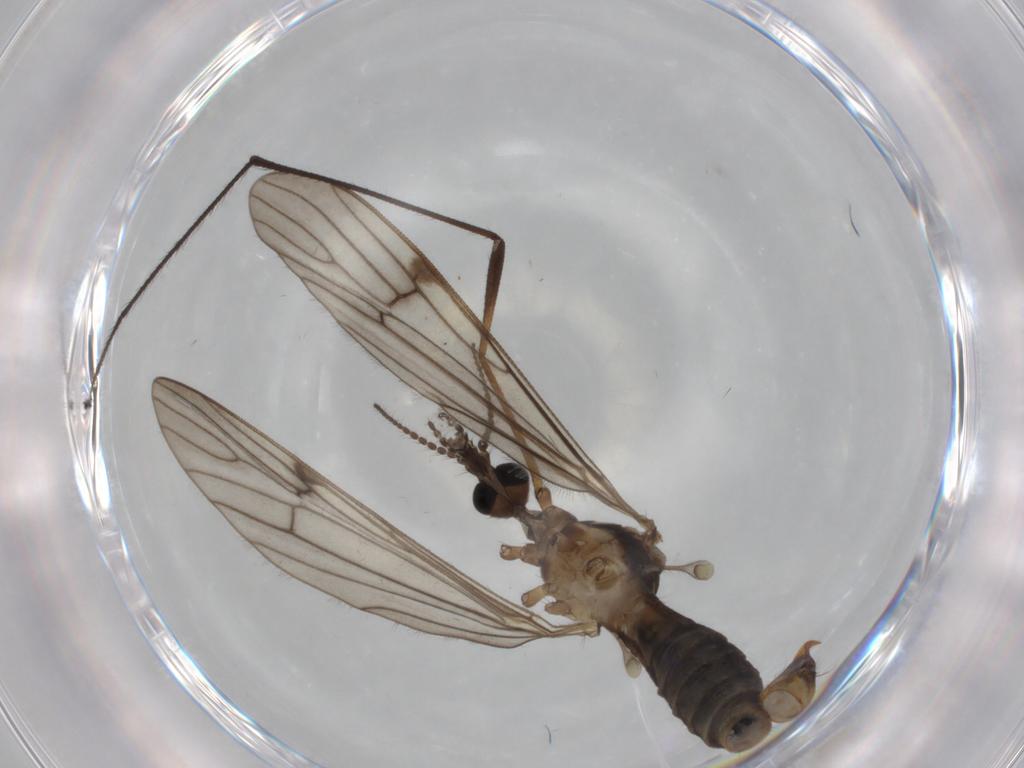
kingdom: Animalia
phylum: Arthropoda
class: Insecta
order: Diptera
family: Limoniidae
